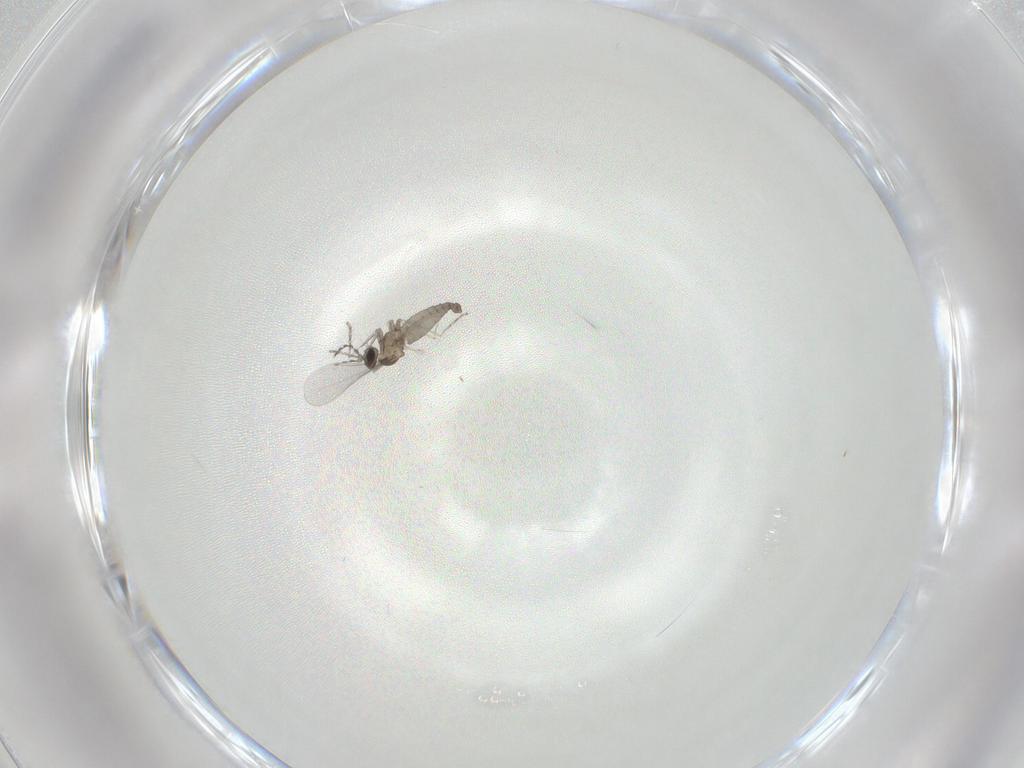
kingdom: Animalia
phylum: Arthropoda
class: Insecta
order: Diptera
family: Cecidomyiidae
